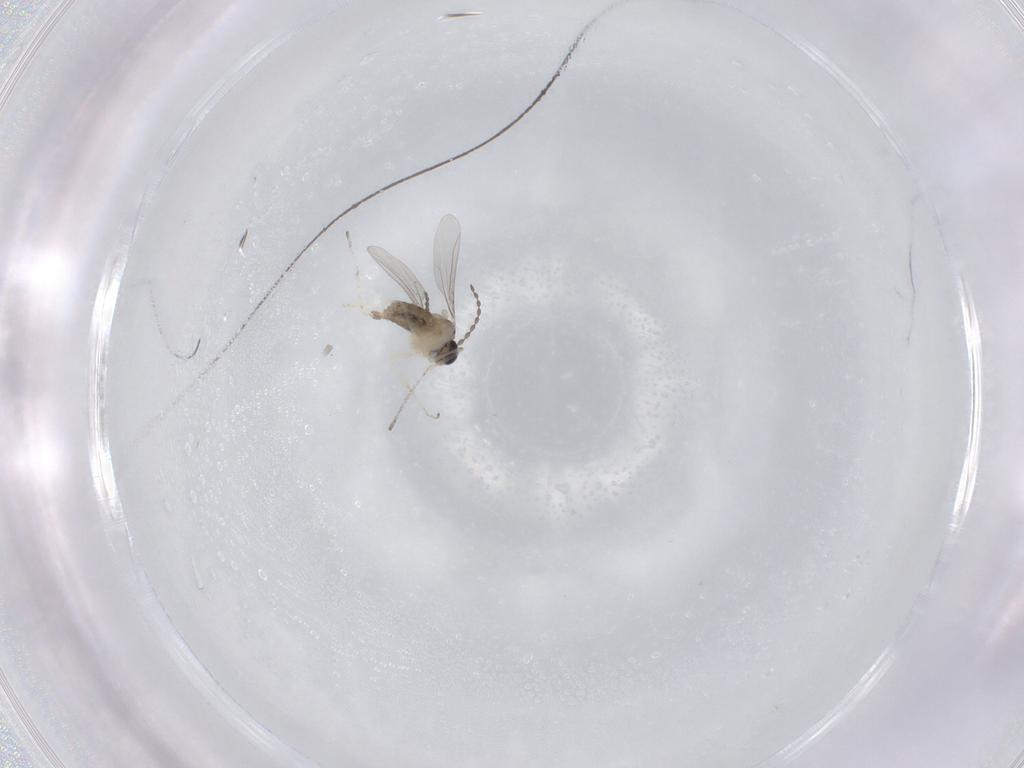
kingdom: Animalia
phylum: Arthropoda
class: Insecta
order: Diptera
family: Cecidomyiidae
